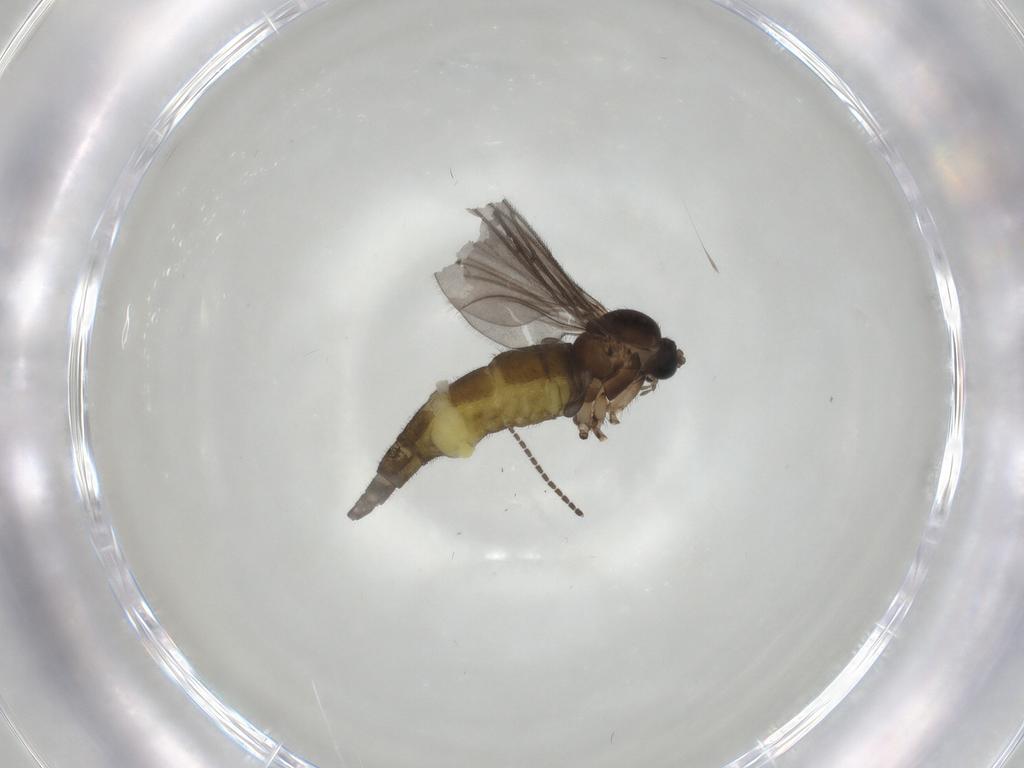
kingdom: Animalia
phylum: Arthropoda
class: Insecta
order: Diptera
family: Sciaridae
